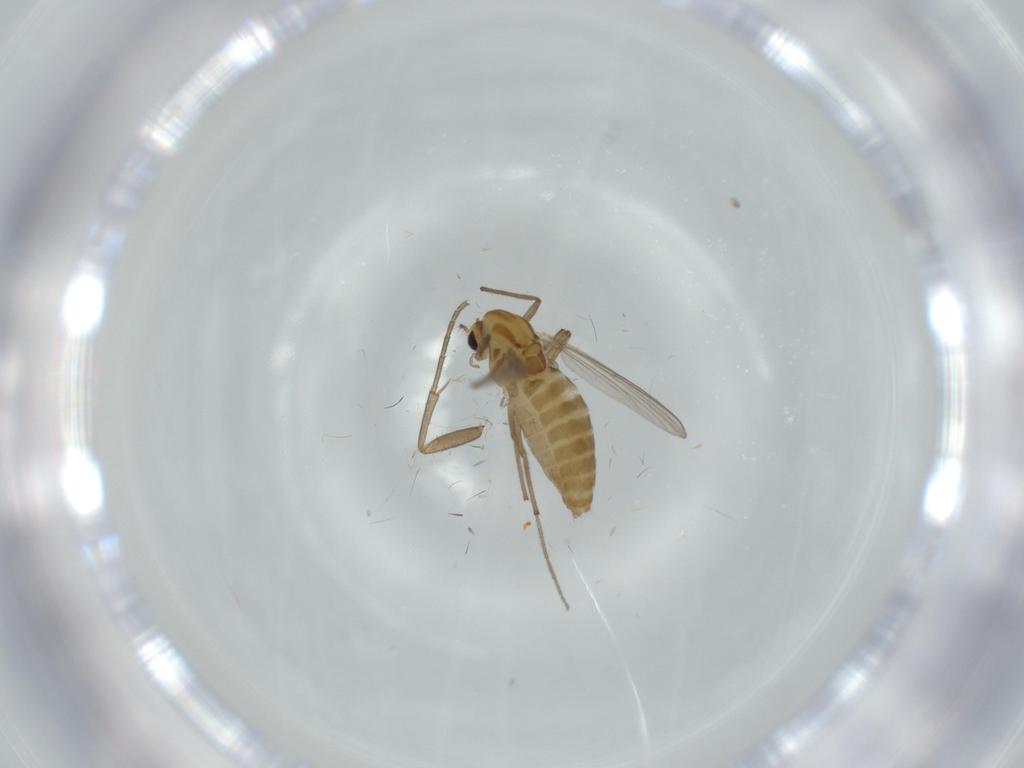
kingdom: Animalia
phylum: Arthropoda
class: Insecta
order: Diptera
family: Chironomidae
